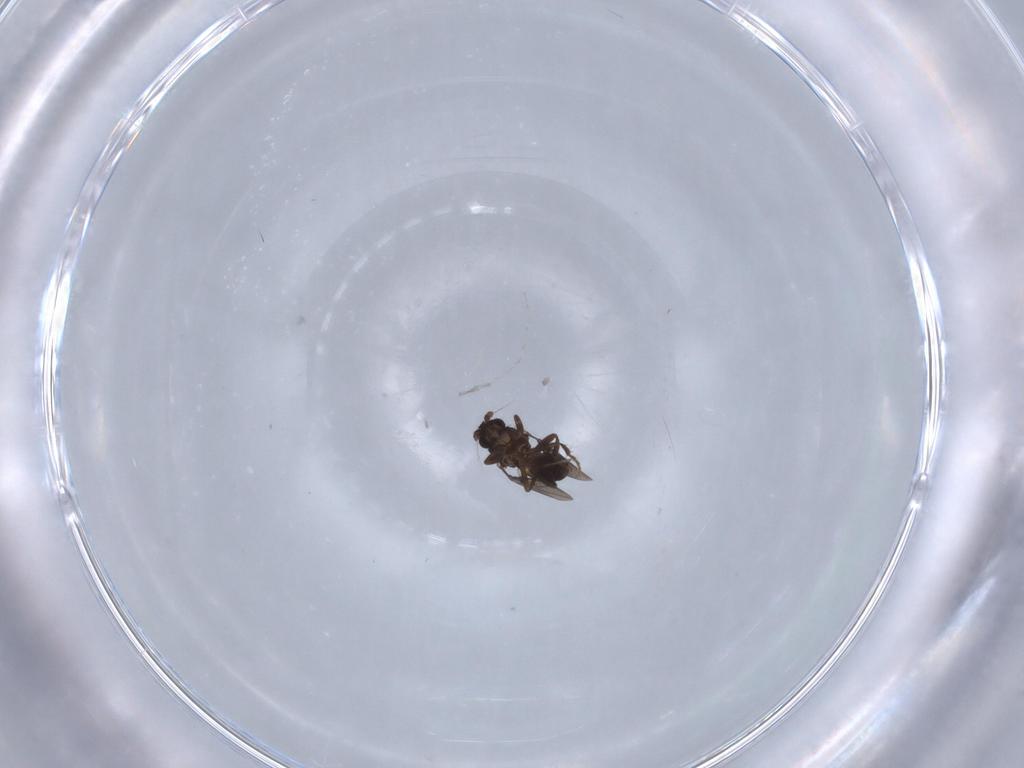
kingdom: Animalia
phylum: Arthropoda
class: Insecta
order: Diptera
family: Sphaeroceridae
